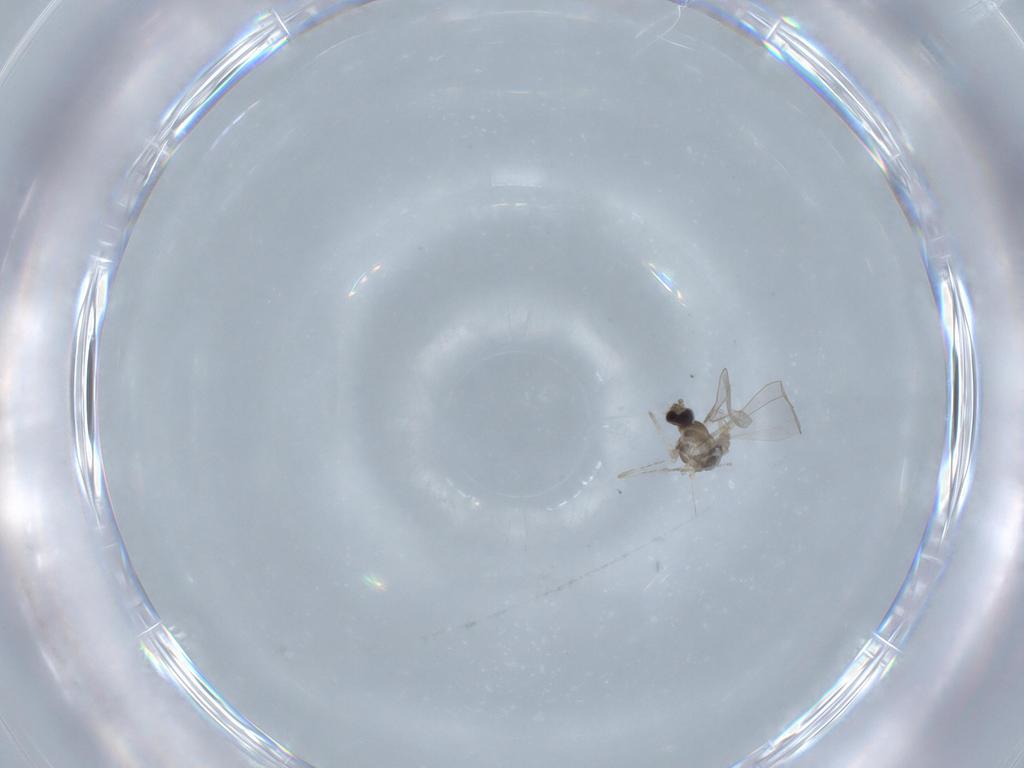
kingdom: Animalia
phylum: Arthropoda
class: Insecta
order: Diptera
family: Cecidomyiidae
